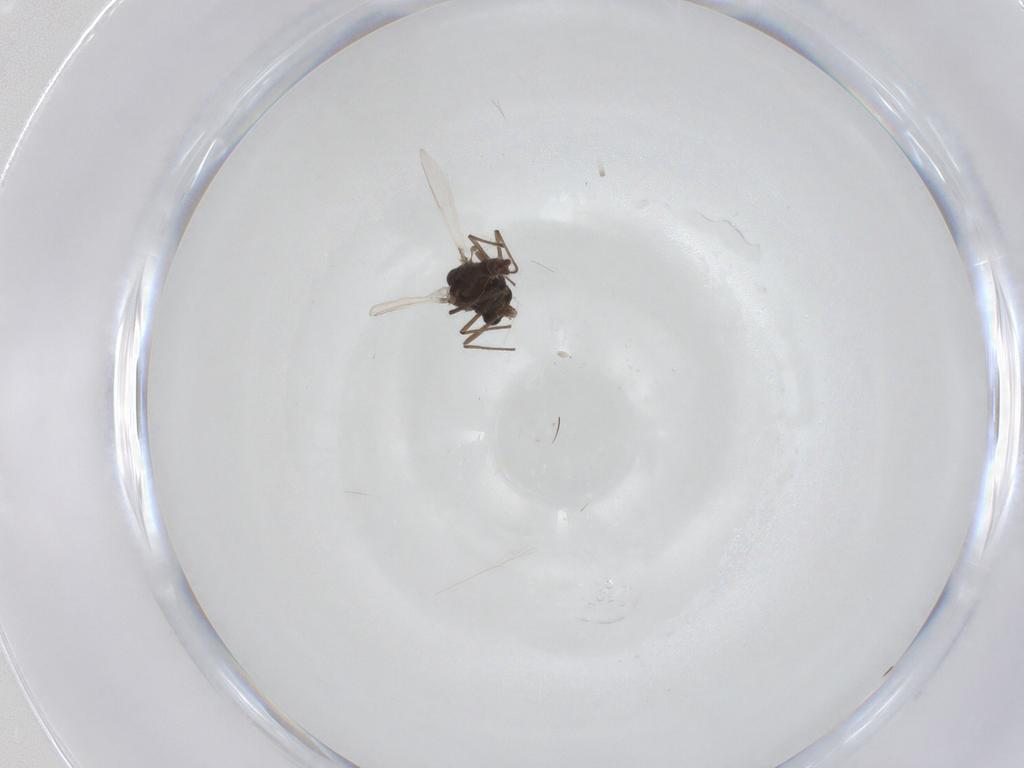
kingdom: Animalia
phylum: Arthropoda
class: Insecta
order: Diptera
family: Chironomidae
